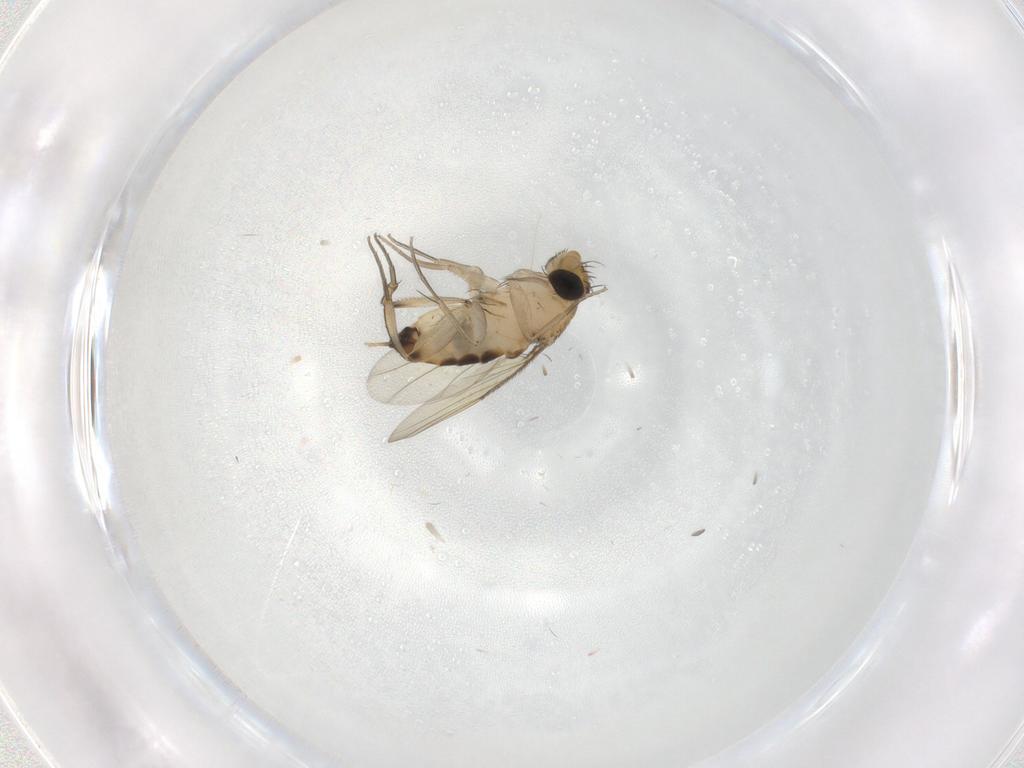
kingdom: Animalia
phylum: Arthropoda
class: Insecta
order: Diptera
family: Phoridae
